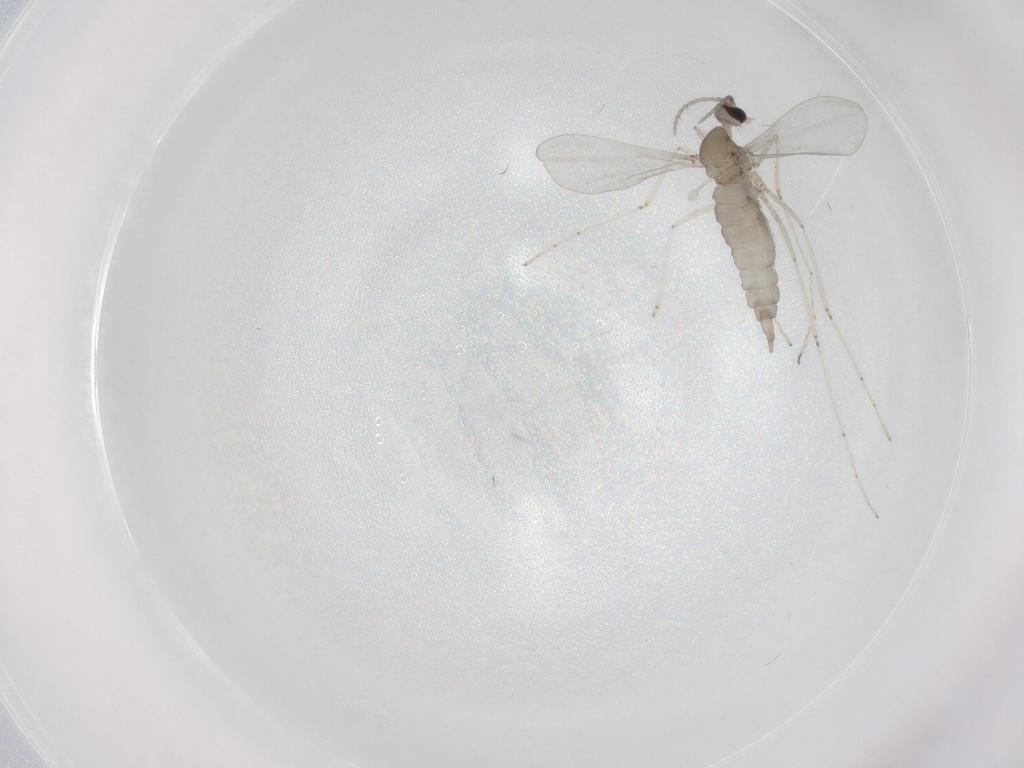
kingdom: Animalia
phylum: Arthropoda
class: Insecta
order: Diptera
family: Cecidomyiidae
